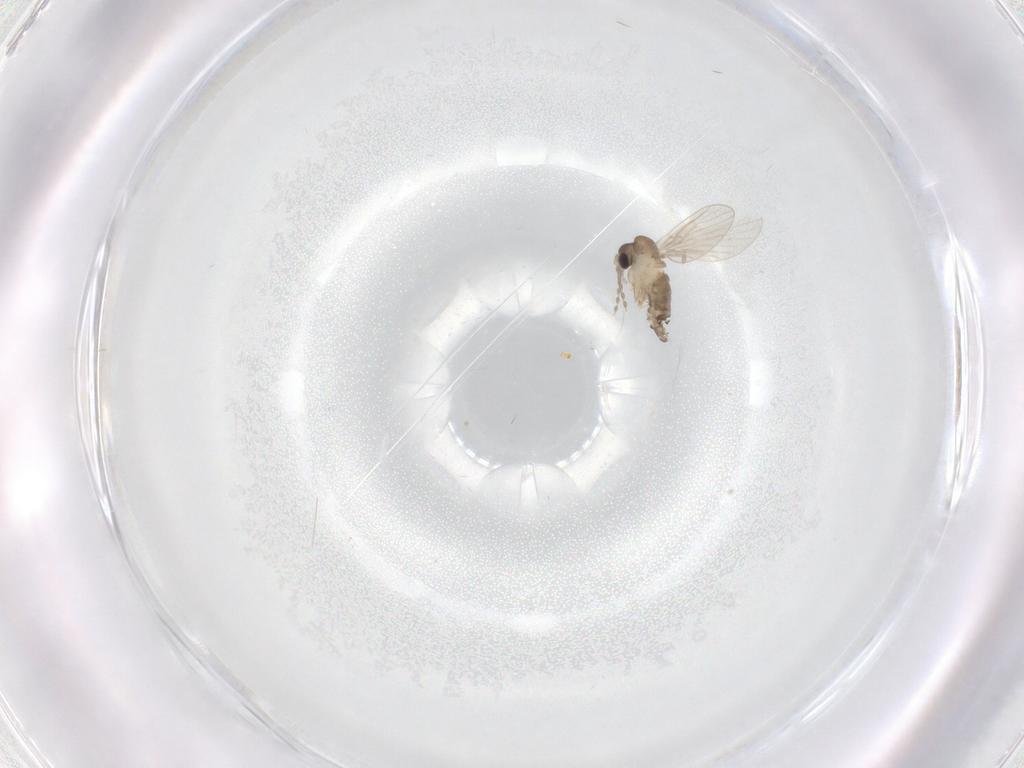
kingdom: Animalia
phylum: Arthropoda
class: Insecta
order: Diptera
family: Psychodidae
